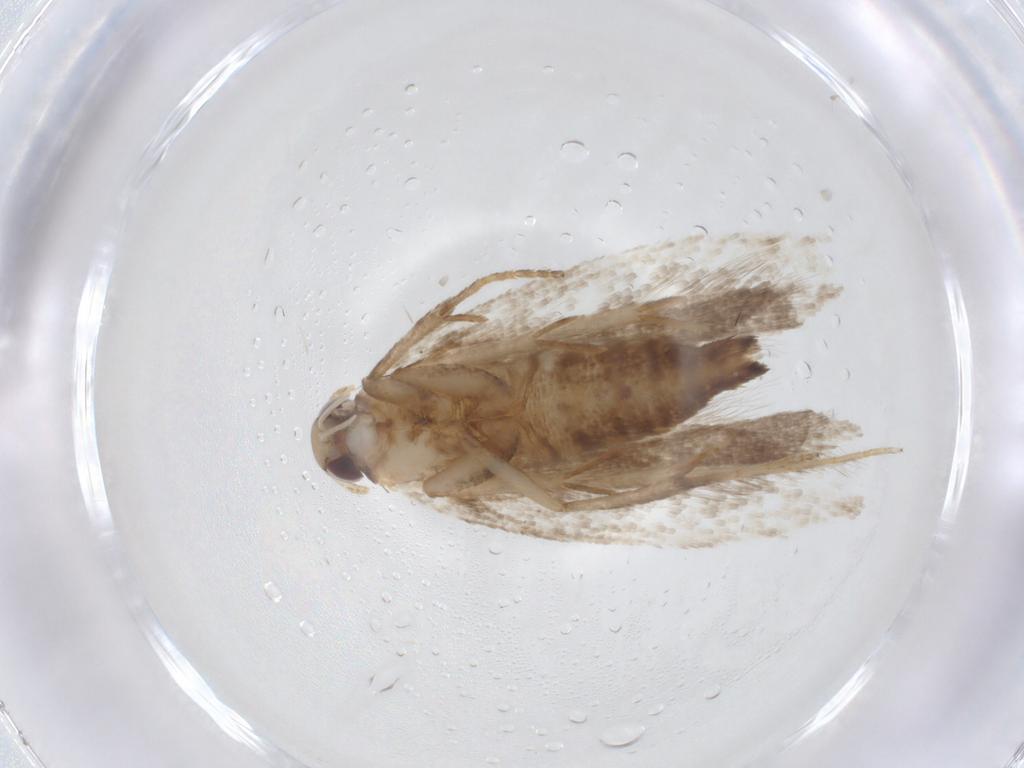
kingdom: Animalia
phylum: Arthropoda
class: Insecta
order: Lepidoptera
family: Gelechiidae
